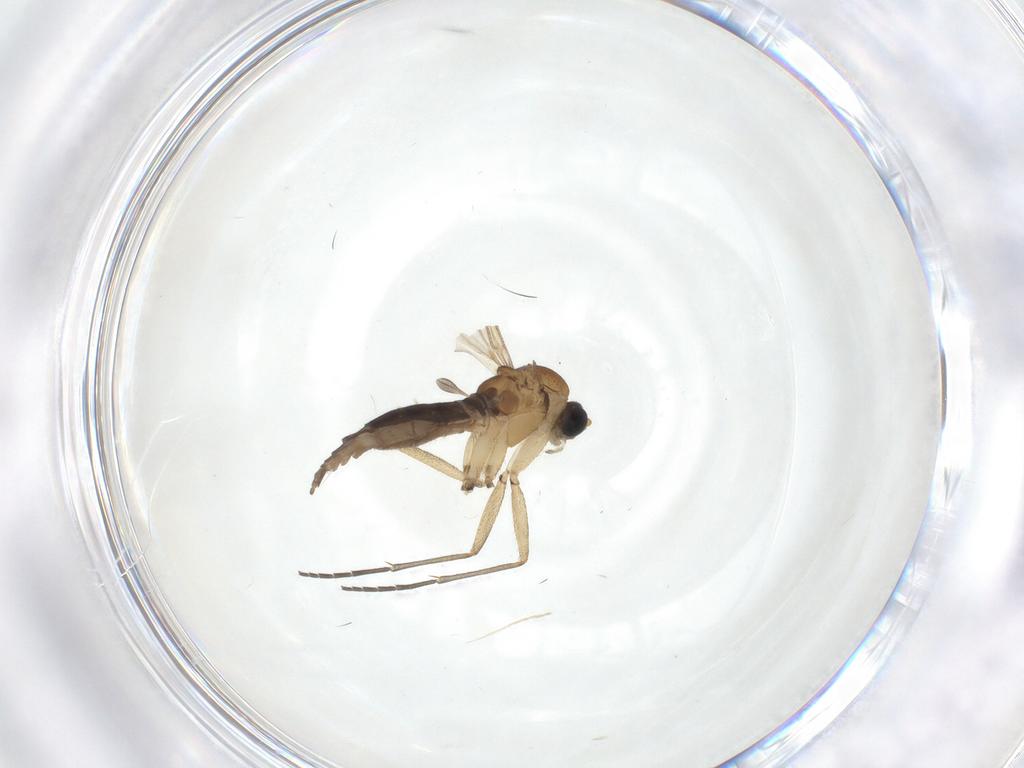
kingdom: Animalia
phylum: Arthropoda
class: Insecta
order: Diptera
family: Sciaridae
